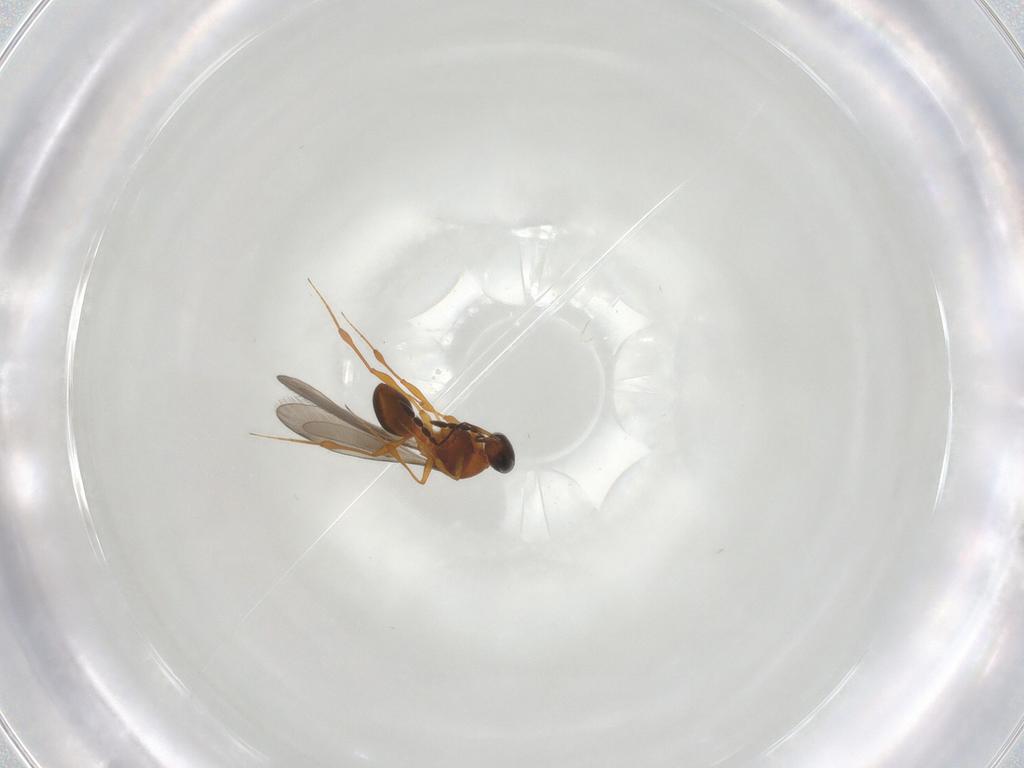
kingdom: Animalia
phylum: Arthropoda
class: Insecta
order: Hymenoptera
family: Platygastridae
